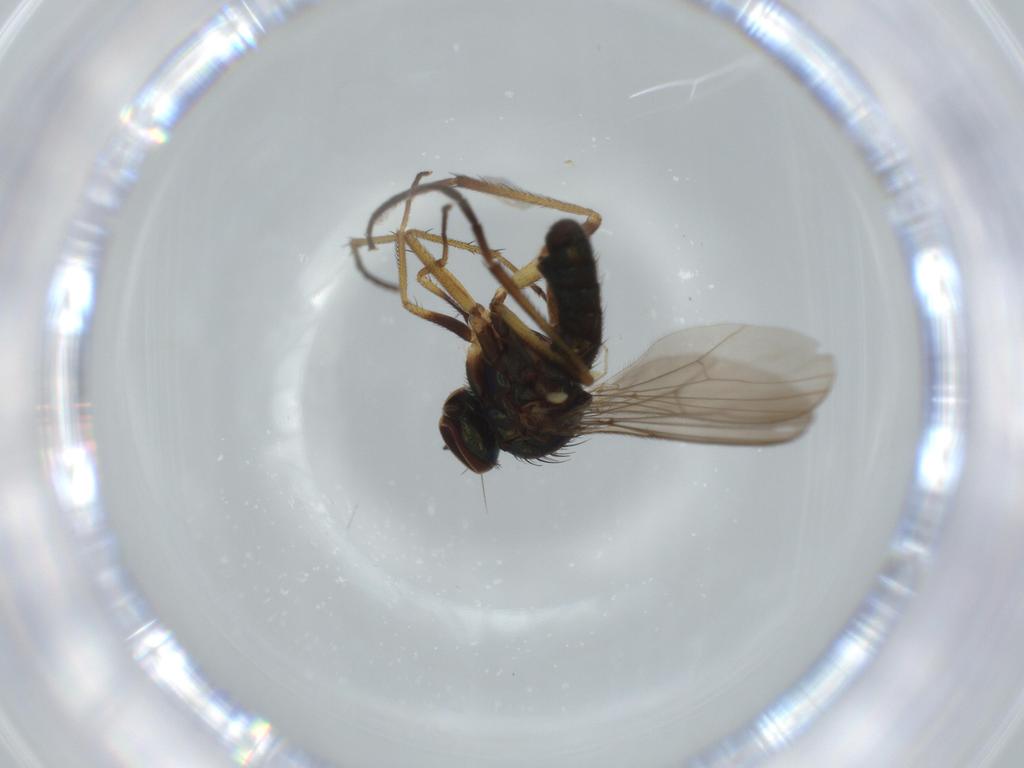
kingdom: Animalia
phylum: Arthropoda
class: Insecta
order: Diptera
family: Dolichopodidae
